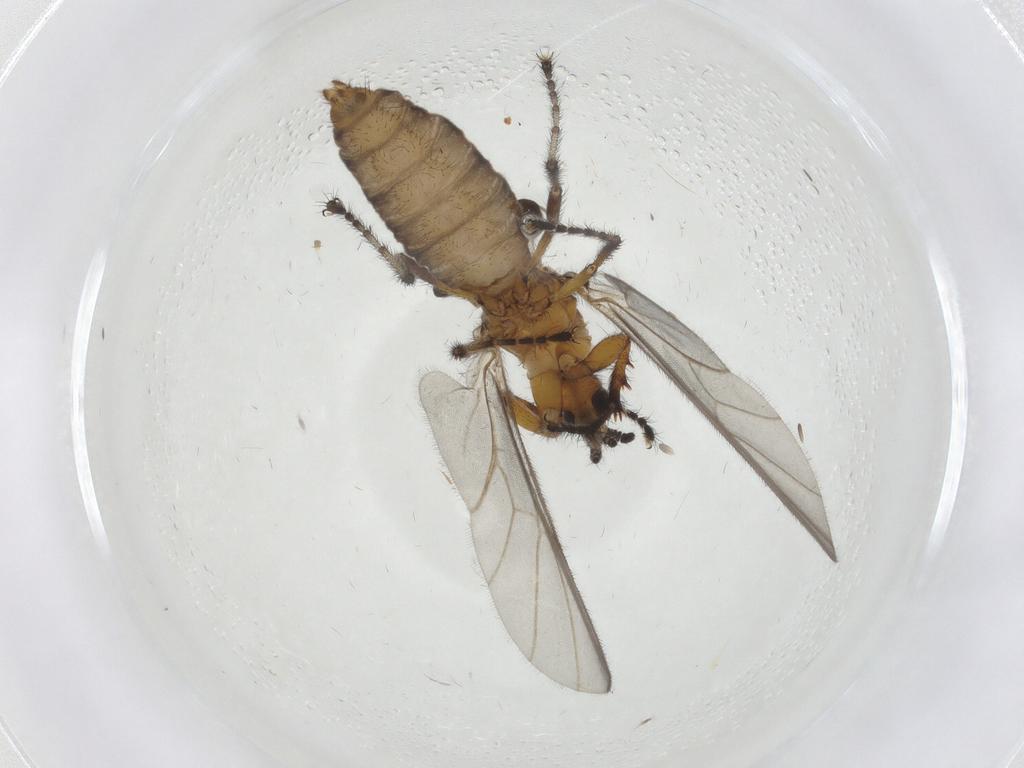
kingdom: Animalia
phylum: Arthropoda
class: Insecta
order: Diptera
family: Bibionidae
